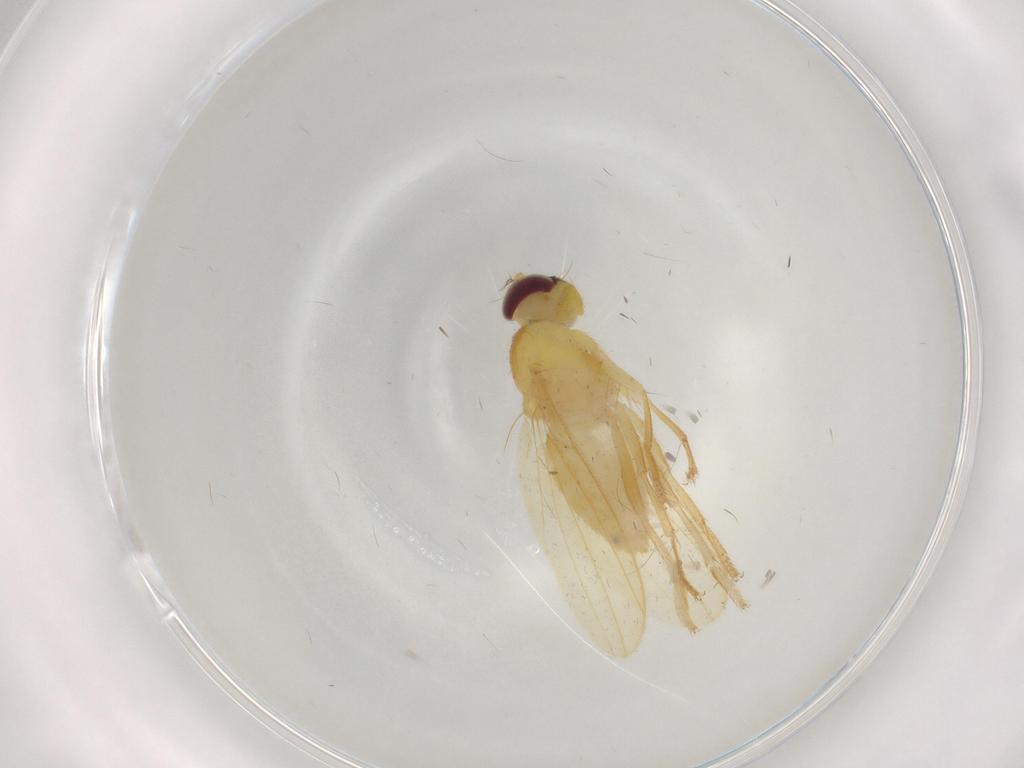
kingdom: Animalia
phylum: Arthropoda
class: Insecta
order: Diptera
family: Periscelididae
